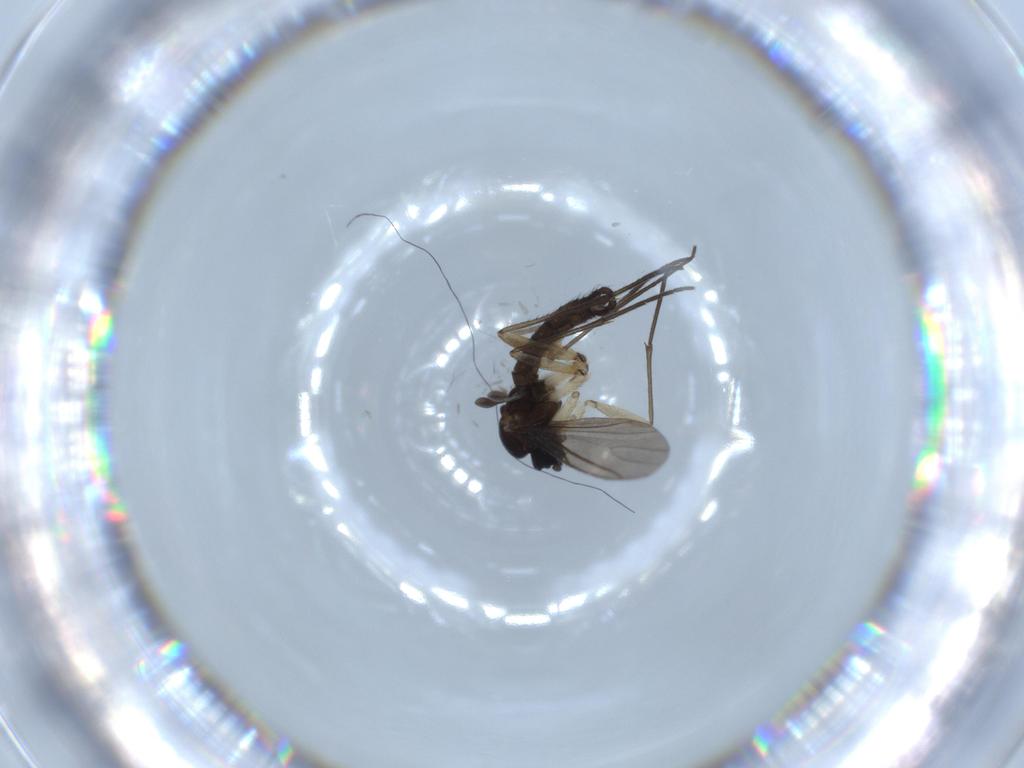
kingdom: Animalia
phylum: Arthropoda
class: Insecta
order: Diptera
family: Sciaridae
